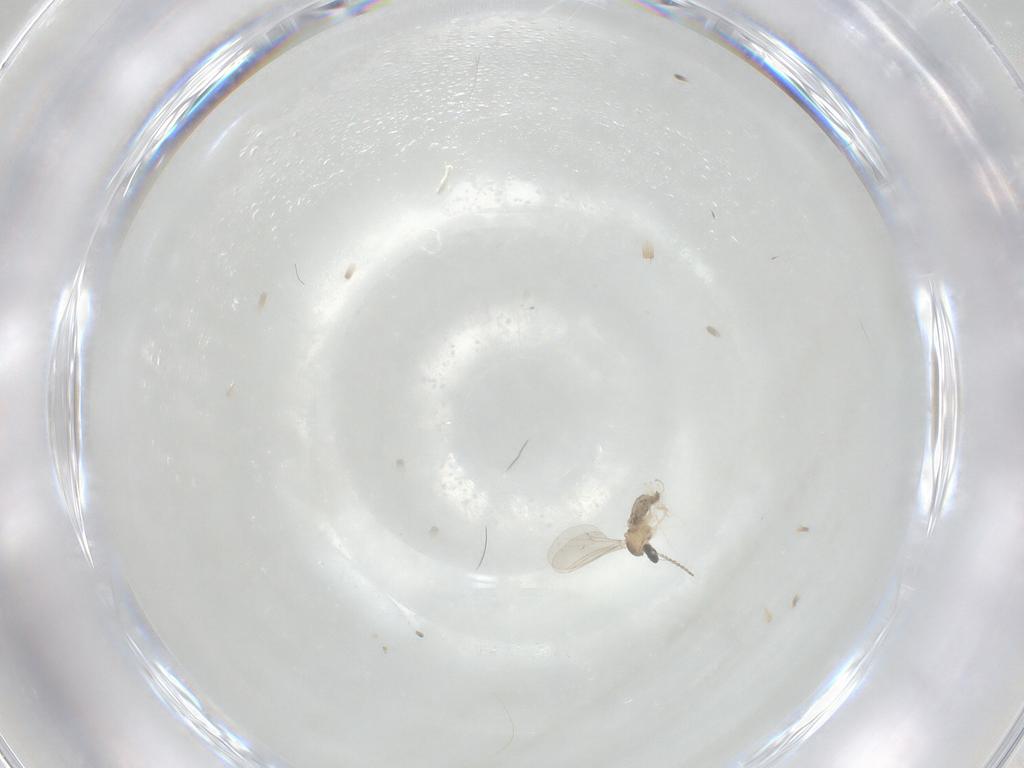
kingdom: Animalia
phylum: Arthropoda
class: Insecta
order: Diptera
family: Cecidomyiidae
